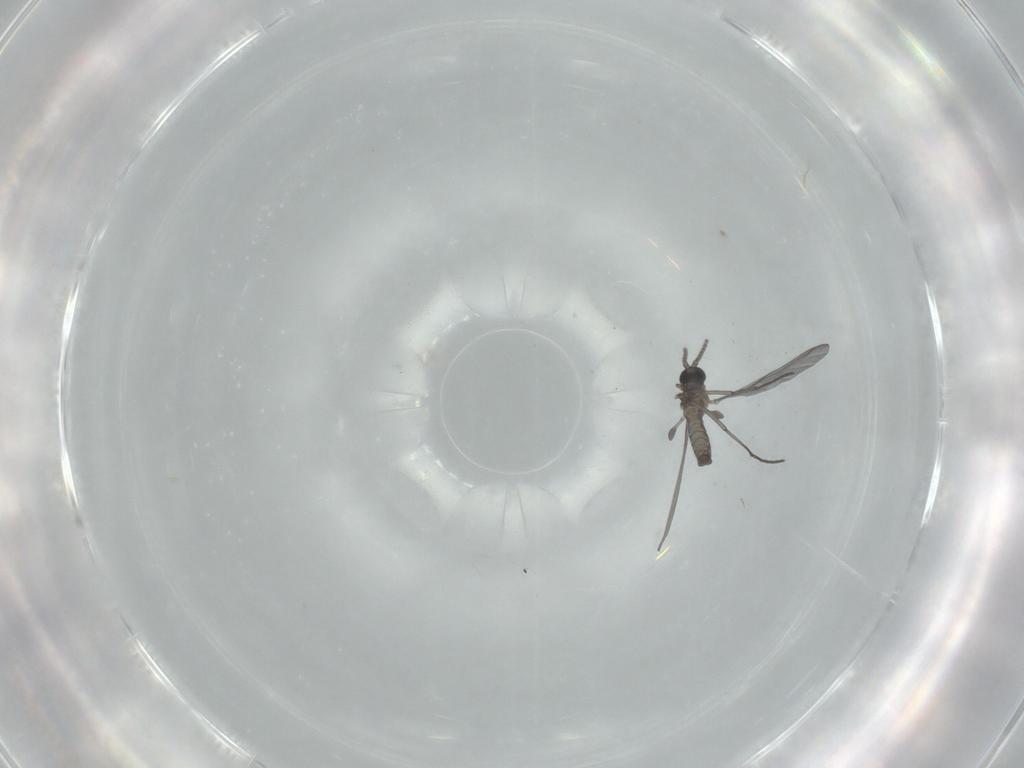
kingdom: Animalia
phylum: Arthropoda
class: Insecta
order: Diptera
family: Sciaridae
